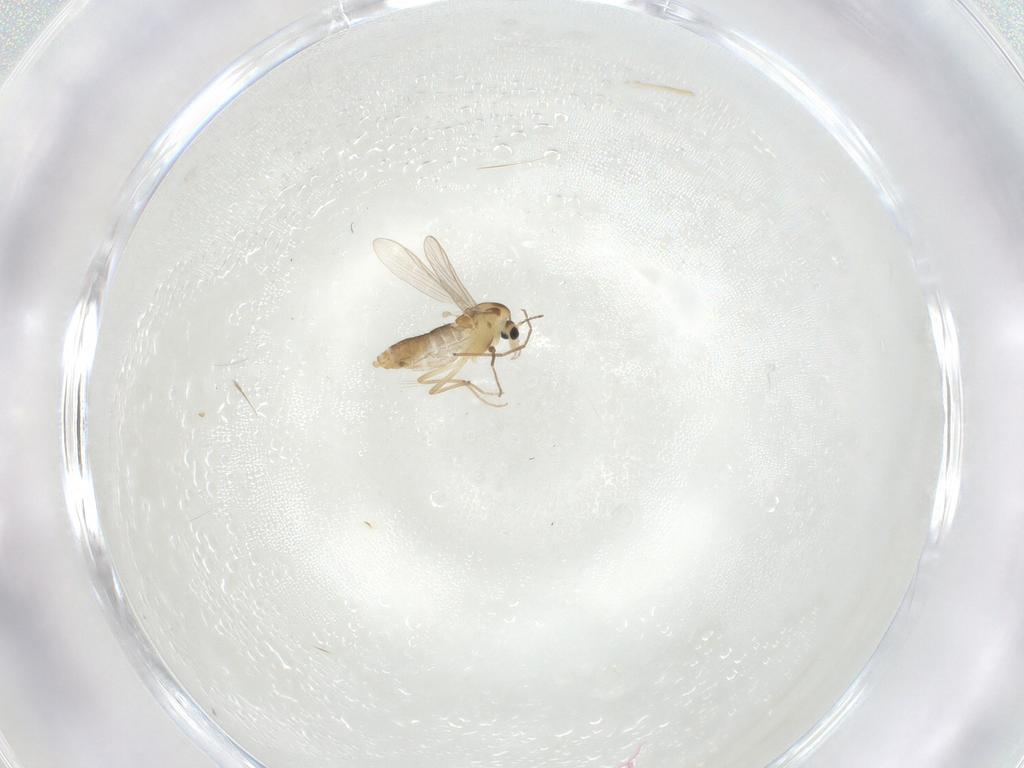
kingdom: Animalia
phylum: Arthropoda
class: Insecta
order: Diptera
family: Chironomidae
